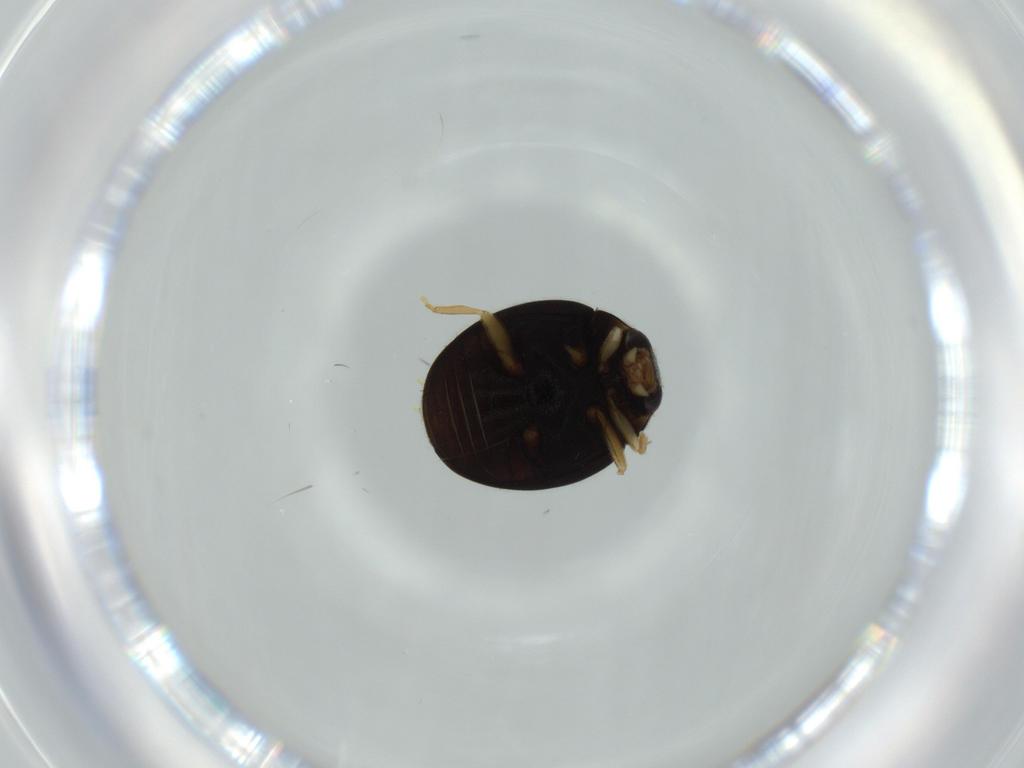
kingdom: Animalia
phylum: Arthropoda
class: Insecta
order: Coleoptera
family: Coccinellidae
